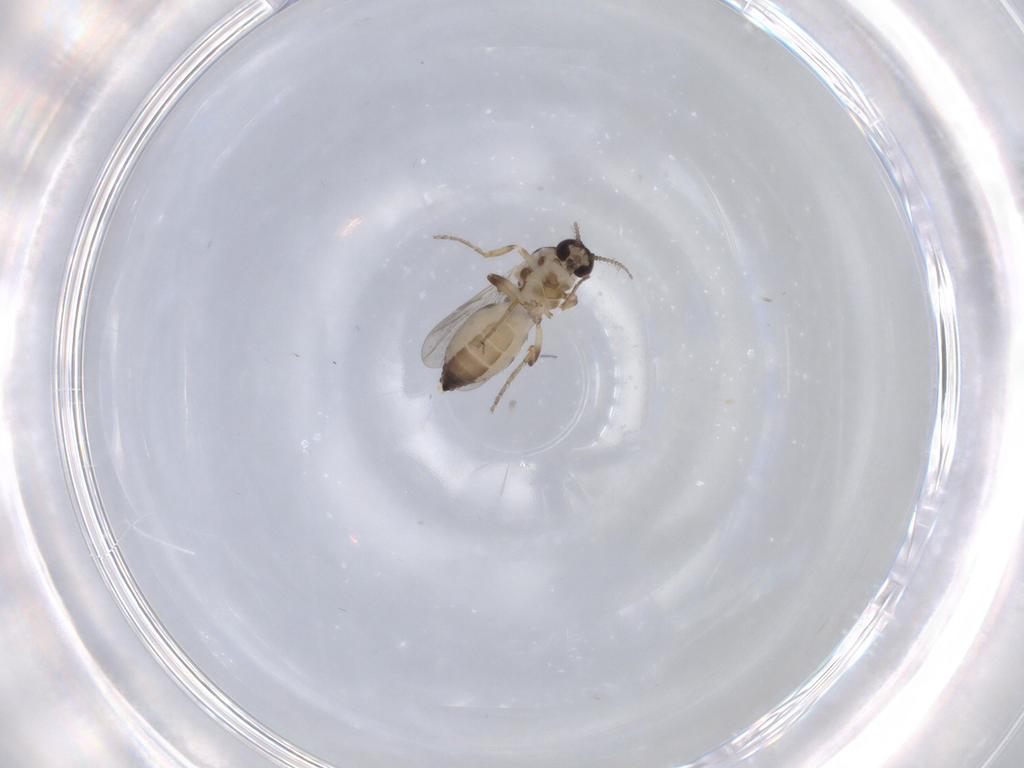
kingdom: Animalia
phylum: Arthropoda
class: Insecta
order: Diptera
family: Ceratopogonidae
